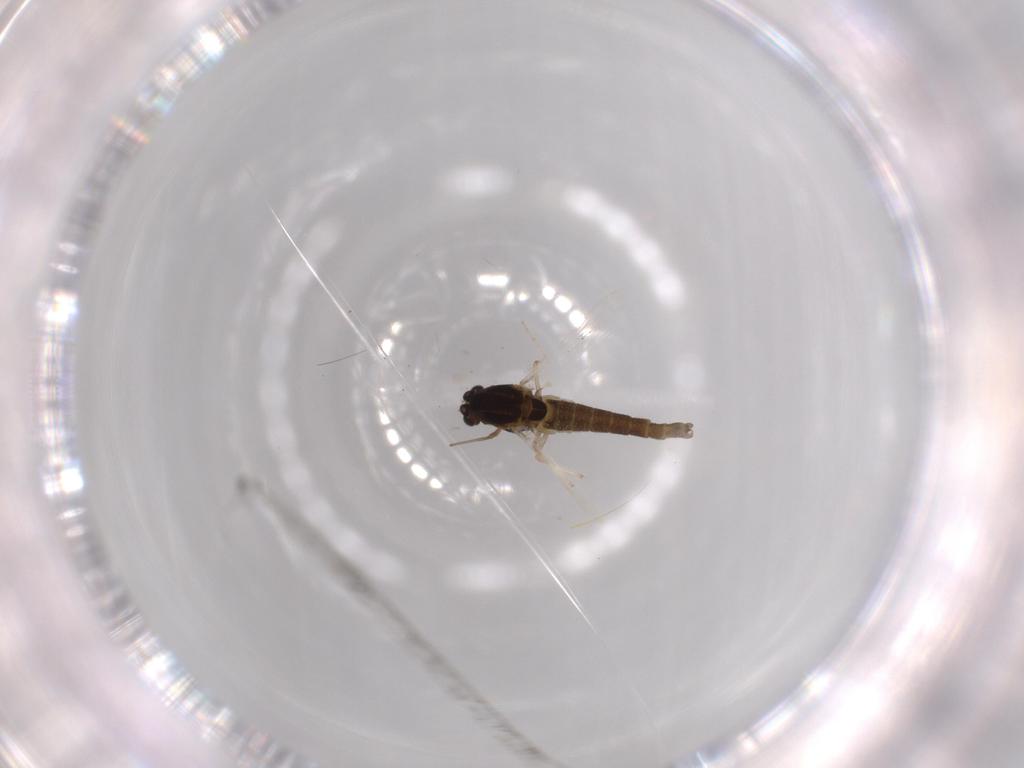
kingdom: Animalia
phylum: Arthropoda
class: Insecta
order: Diptera
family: Chironomidae
